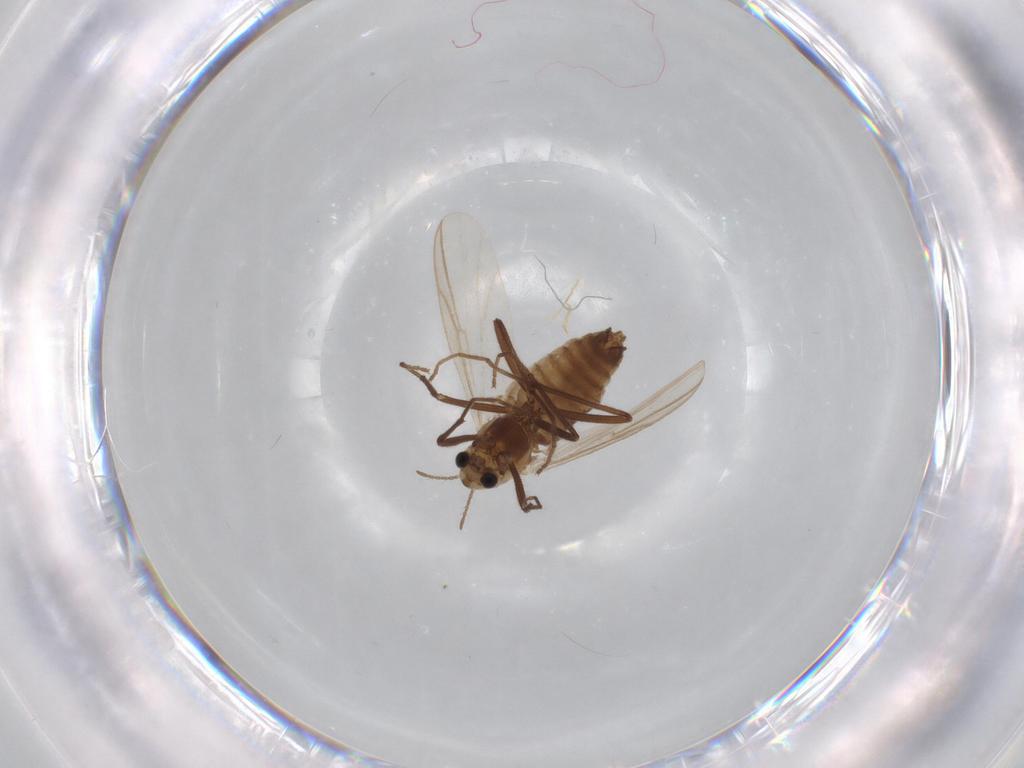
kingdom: Animalia
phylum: Arthropoda
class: Insecta
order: Diptera
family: Chironomidae
